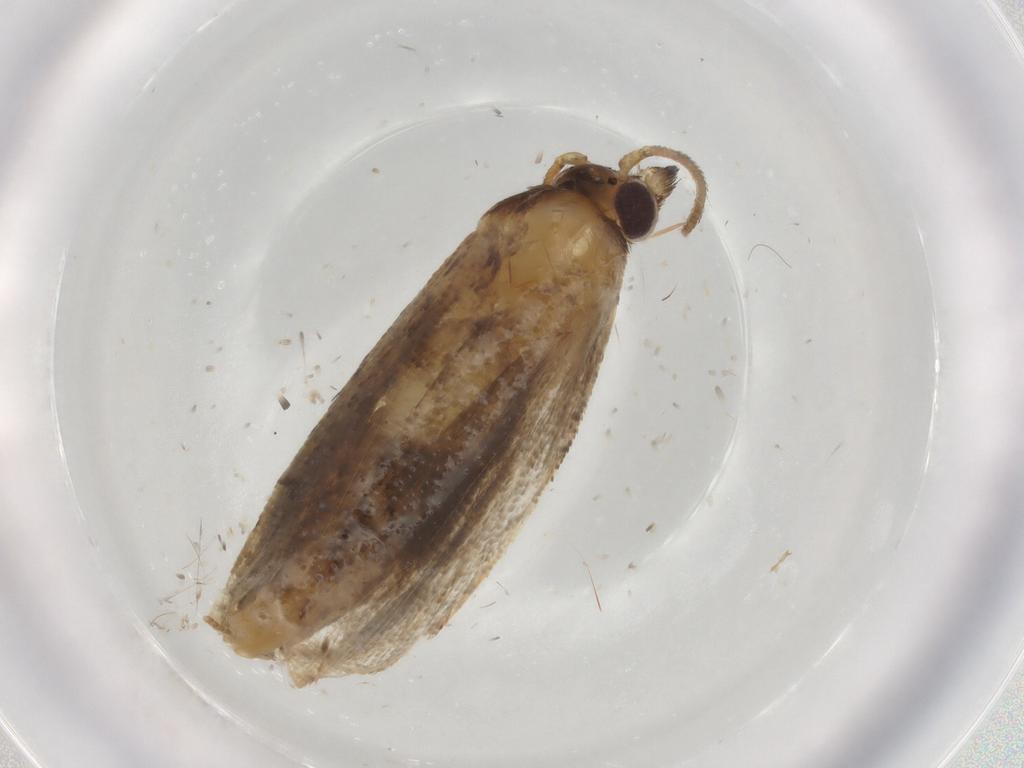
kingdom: Animalia
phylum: Arthropoda
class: Insecta
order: Lepidoptera
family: Tortricidae
